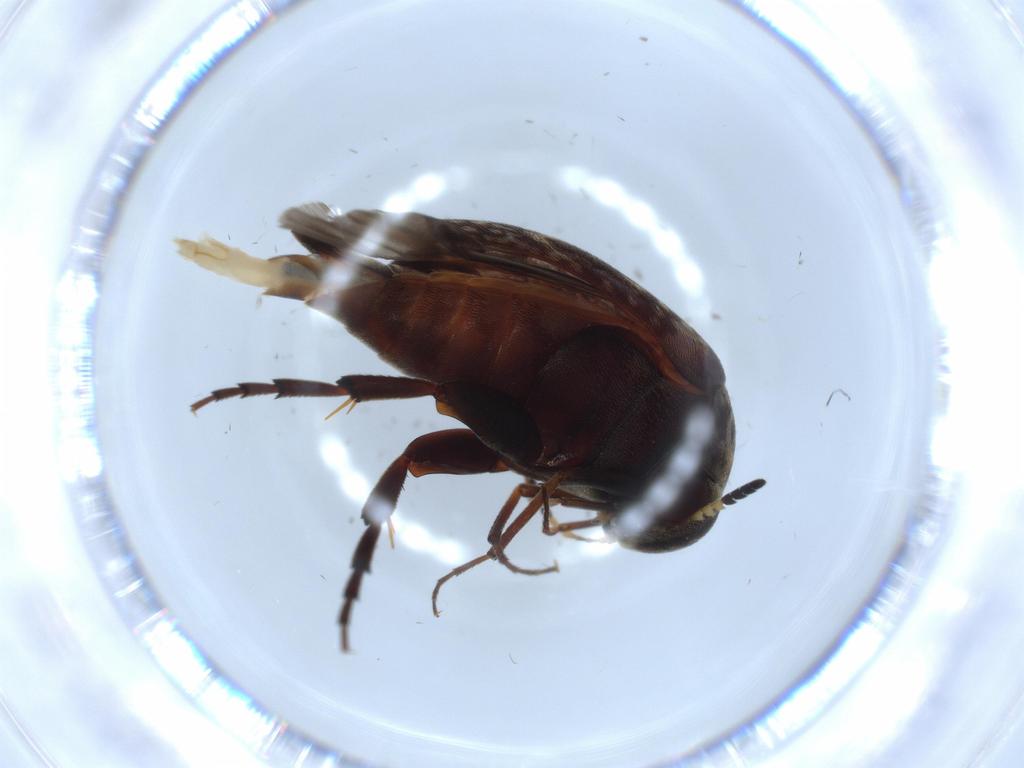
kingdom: Animalia
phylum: Arthropoda
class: Insecta
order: Coleoptera
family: Cantharidae
